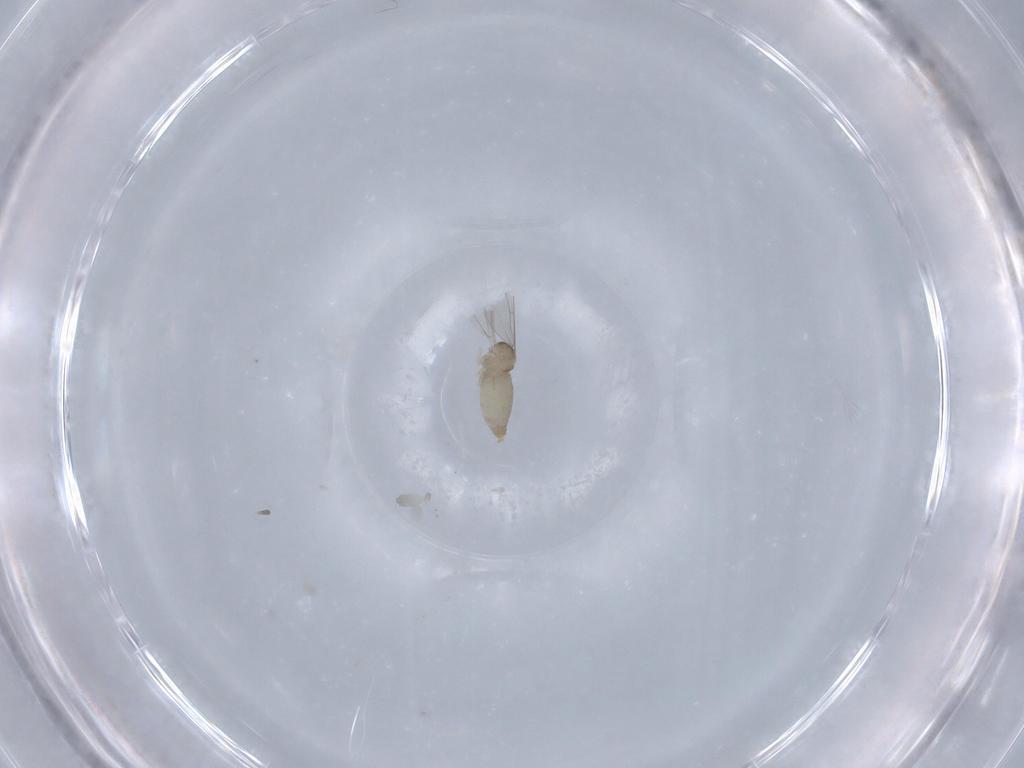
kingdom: Animalia
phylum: Arthropoda
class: Insecta
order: Diptera
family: Cecidomyiidae
